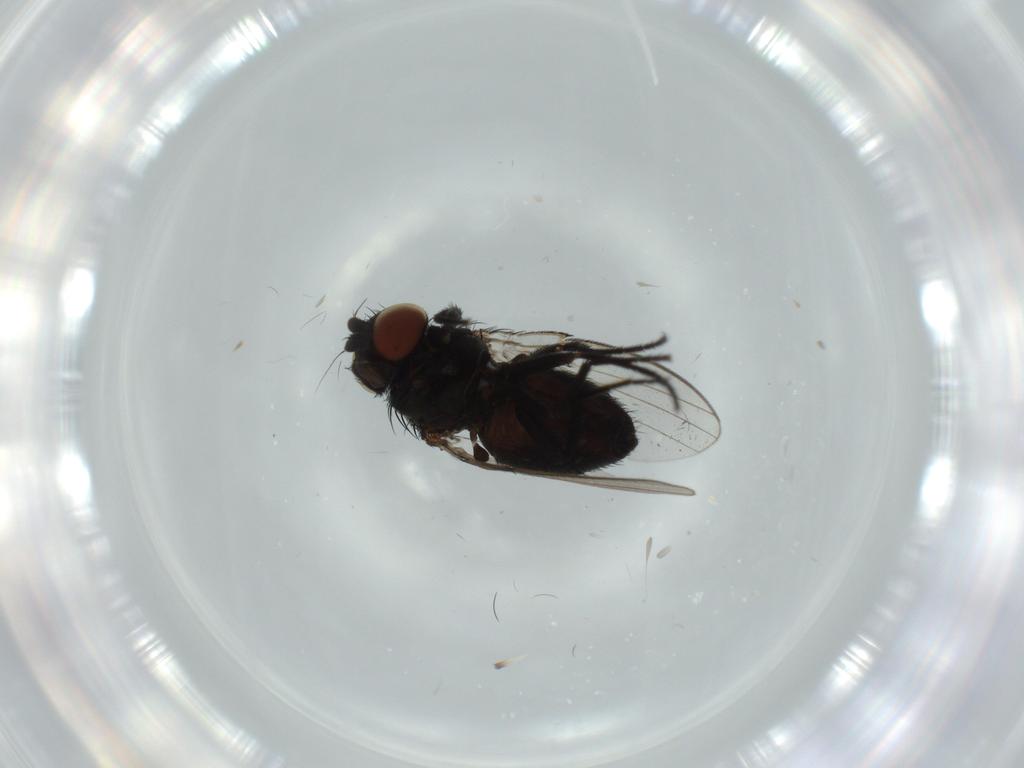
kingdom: Animalia
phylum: Arthropoda
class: Insecta
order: Diptera
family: Milichiidae
